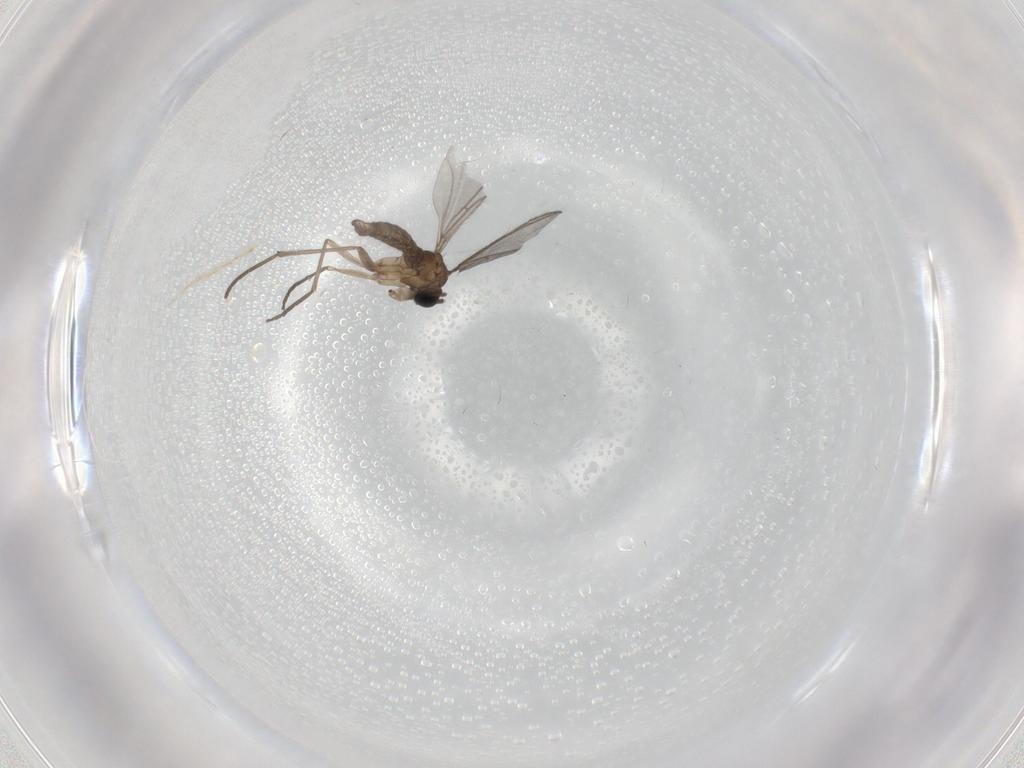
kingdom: Animalia
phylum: Arthropoda
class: Insecta
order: Diptera
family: Sciaridae
